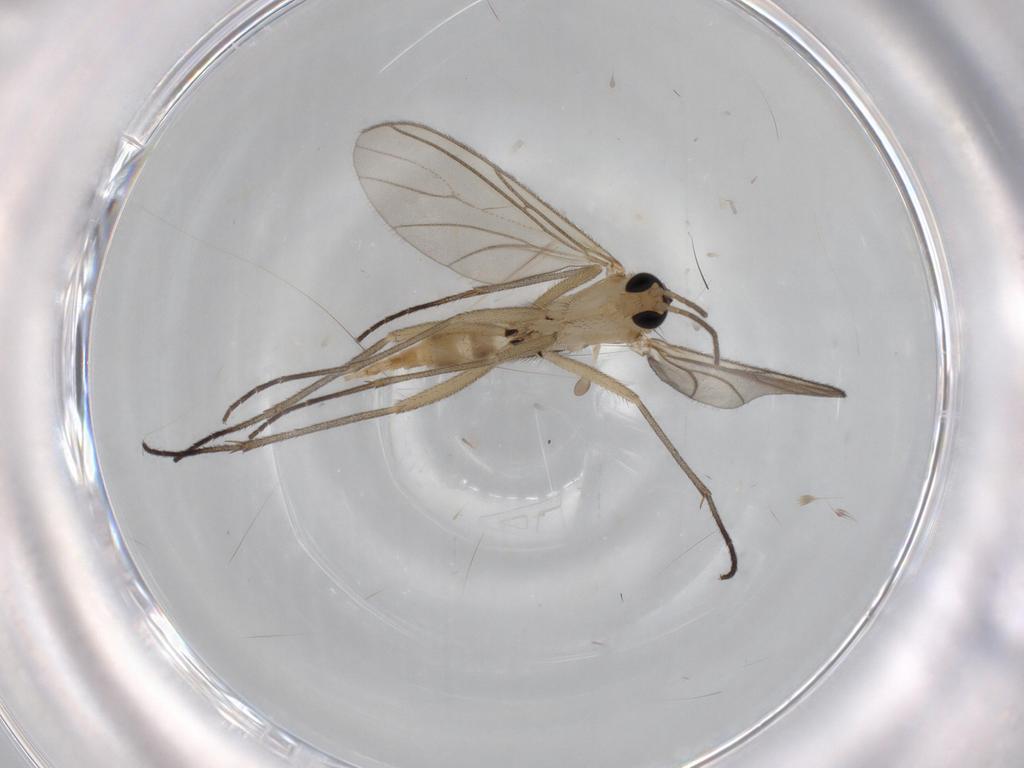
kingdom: Animalia
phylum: Arthropoda
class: Insecta
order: Diptera
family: Sciaridae
